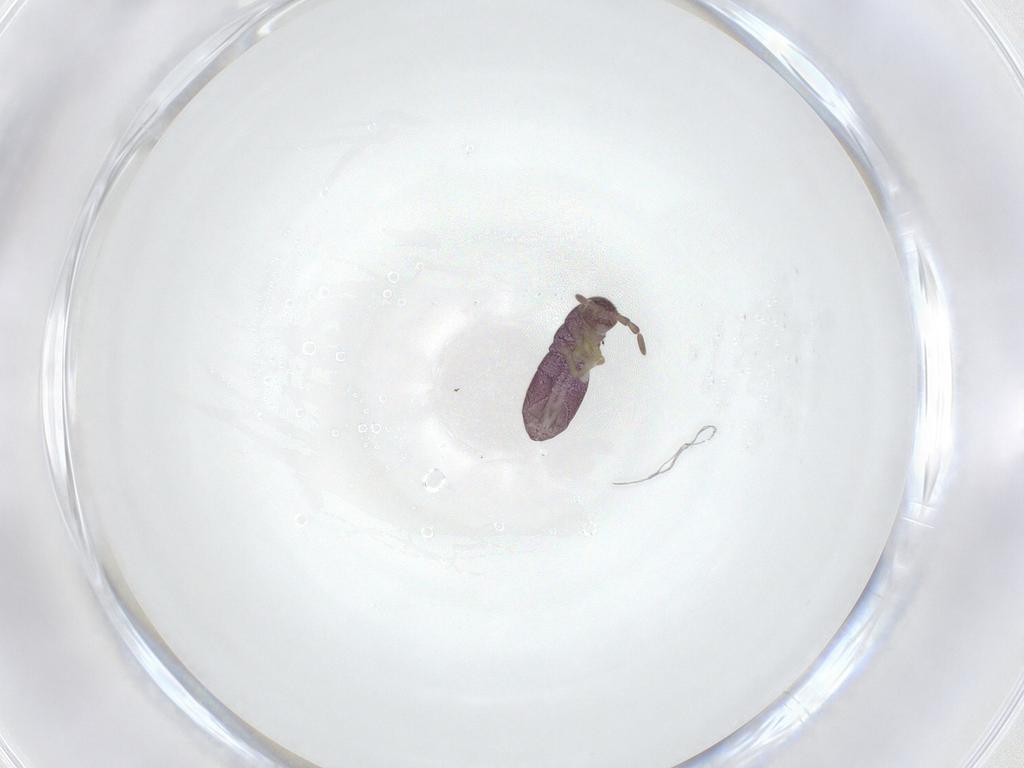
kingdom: Animalia
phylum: Arthropoda
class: Collembola
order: Entomobryomorpha
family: Isotomidae
